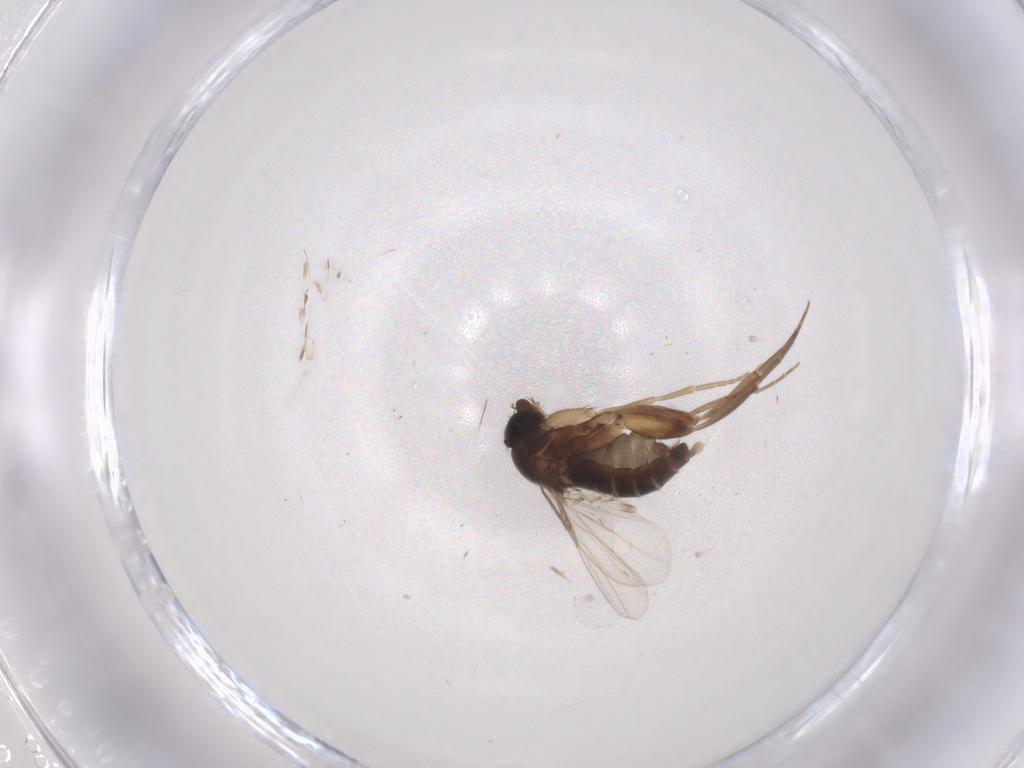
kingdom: Animalia
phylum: Arthropoda
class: Insecta
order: Diptera
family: Phoridae
